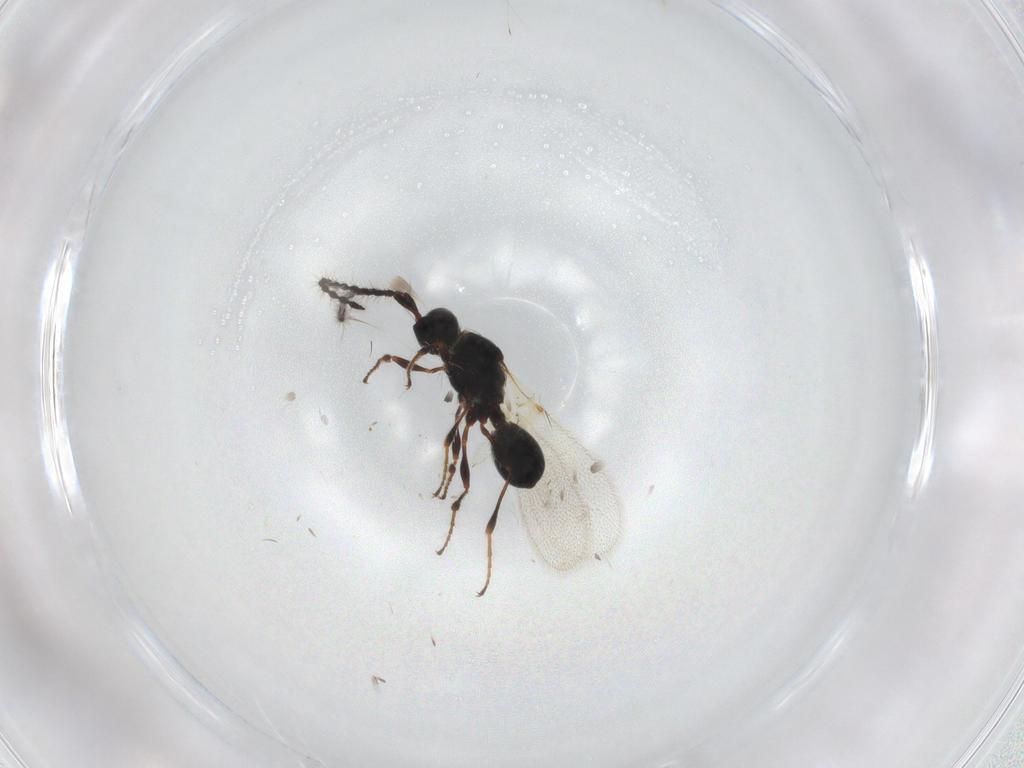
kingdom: Animalia
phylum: Arthropoda
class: Insecta
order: Hymenoptera
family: Diapriidae
